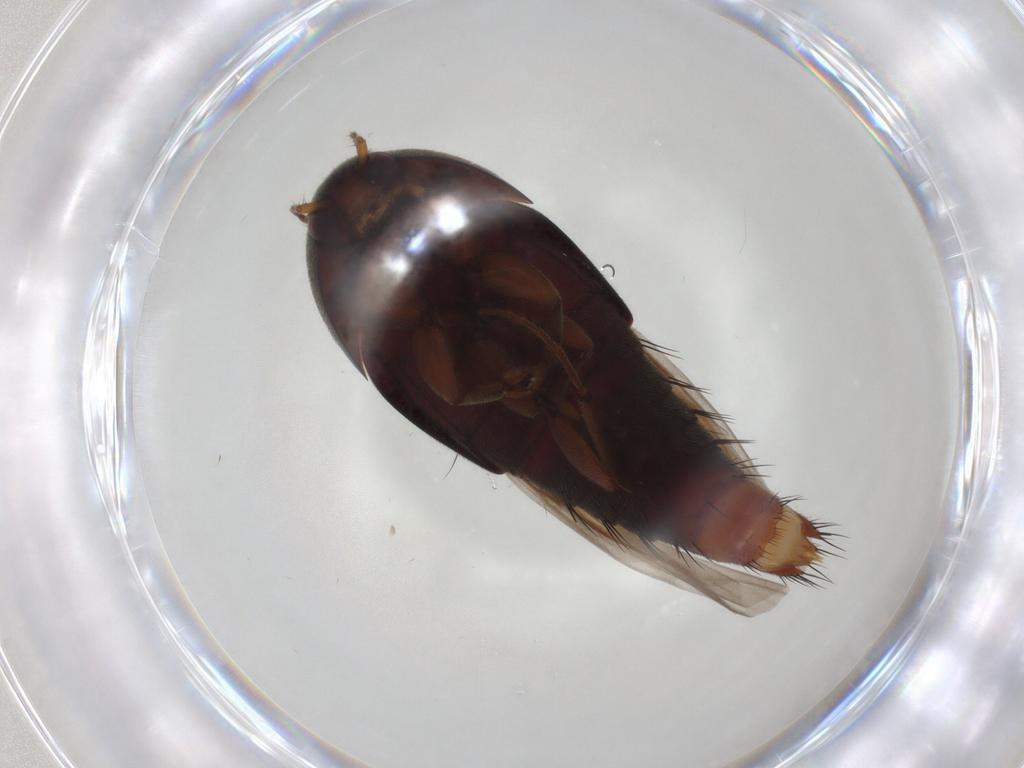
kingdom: Animalia
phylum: Arthropoda
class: Insecta
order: Coleoptera
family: Staphylinidae
